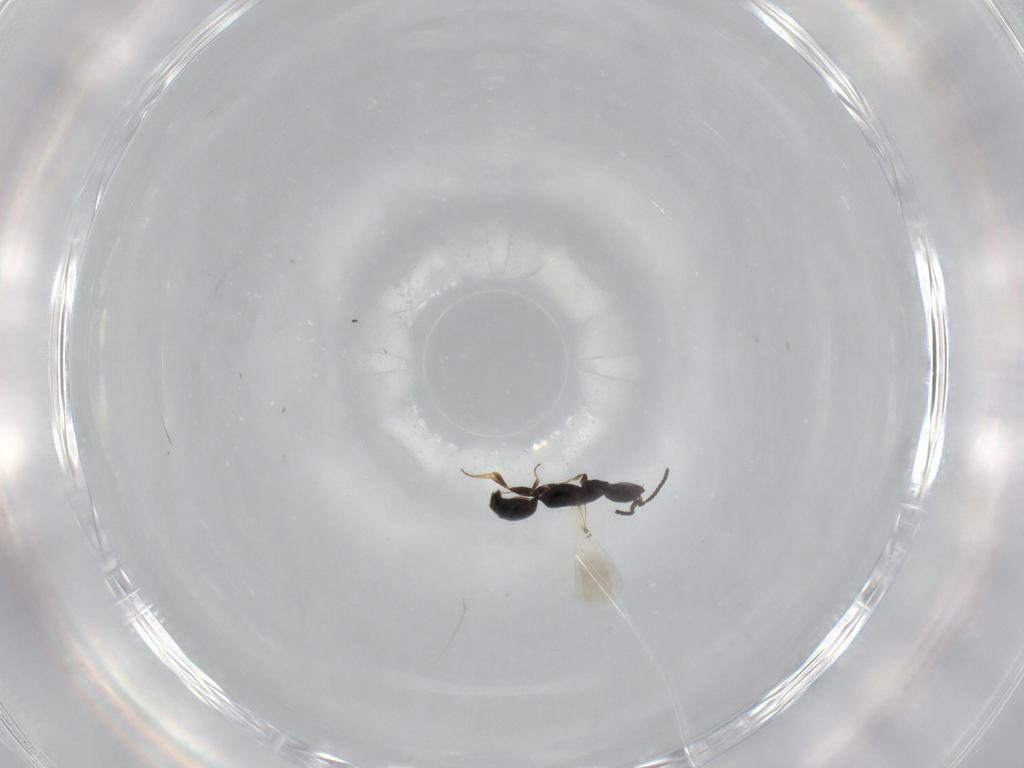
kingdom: Animalia
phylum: Arthropoda
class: Insecta
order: Hymenoptera
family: Bethylidae
